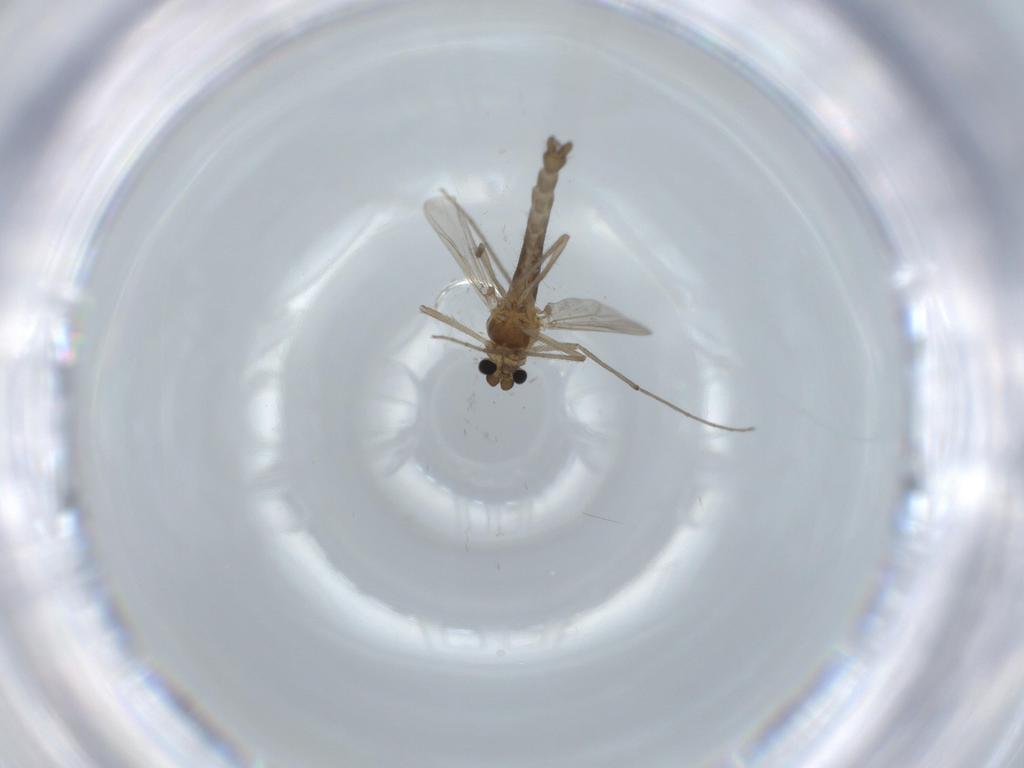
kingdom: Animalia
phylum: Arthropoda
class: Insecta
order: Diptera
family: Chironomidae
